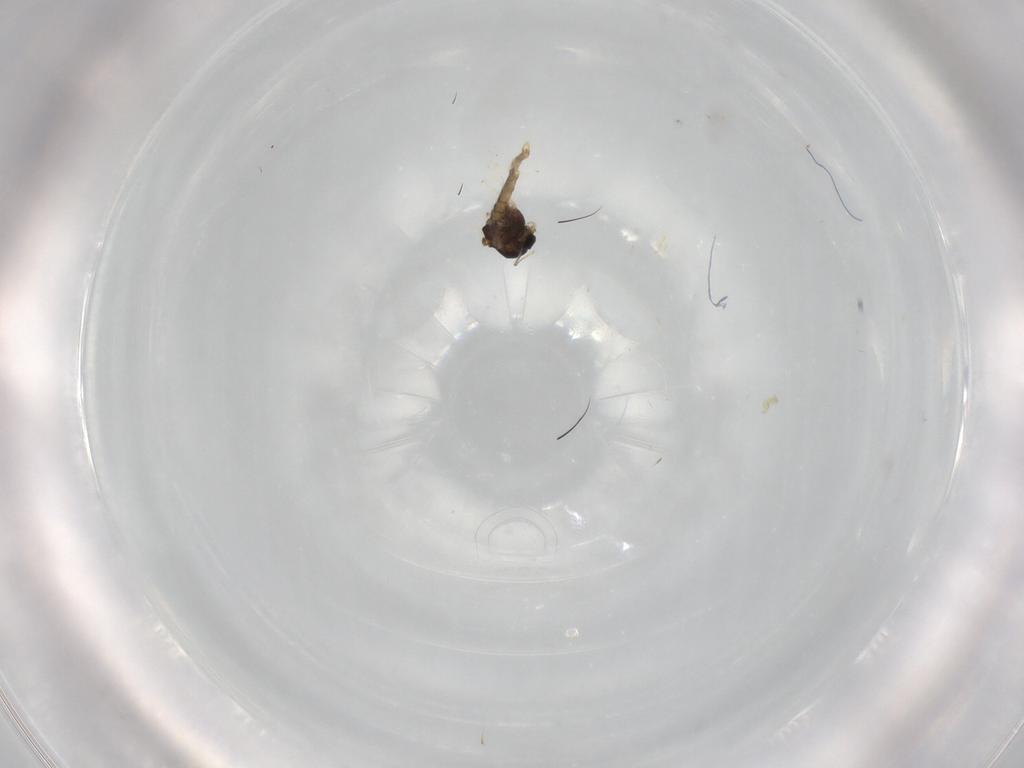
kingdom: Animalia
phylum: Arthropoda
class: Insecta
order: Diptera
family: Chironomidae
